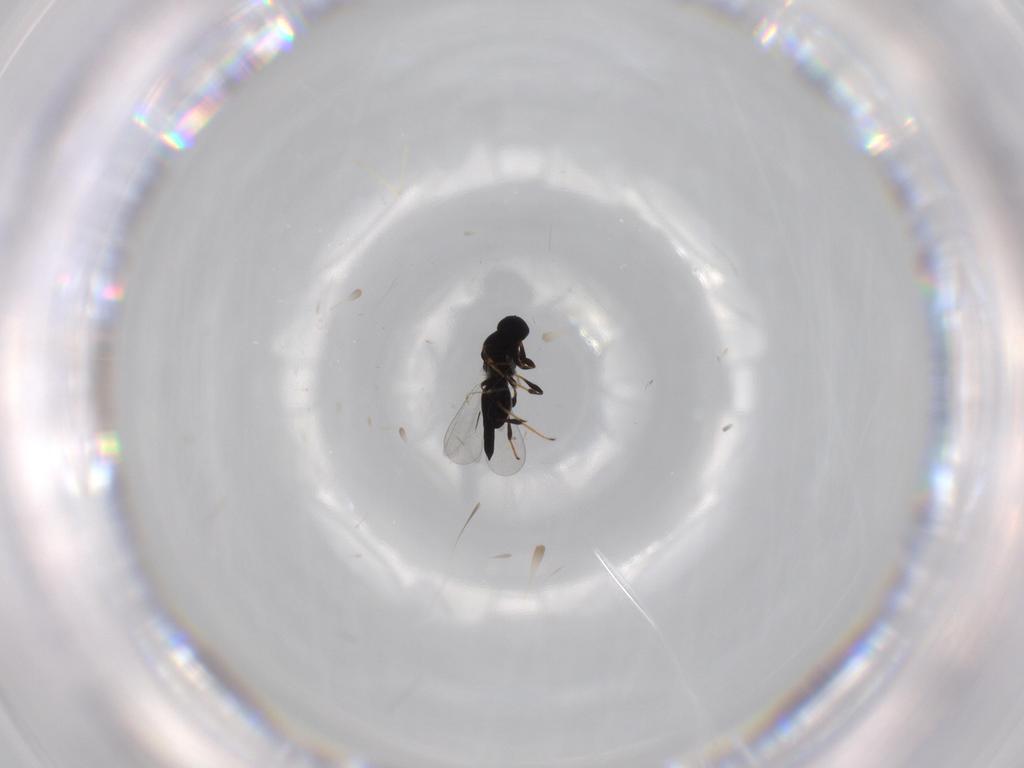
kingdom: Animalia
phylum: Arthropoda
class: Insecta
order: Hymenoptera
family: Platygastridae
